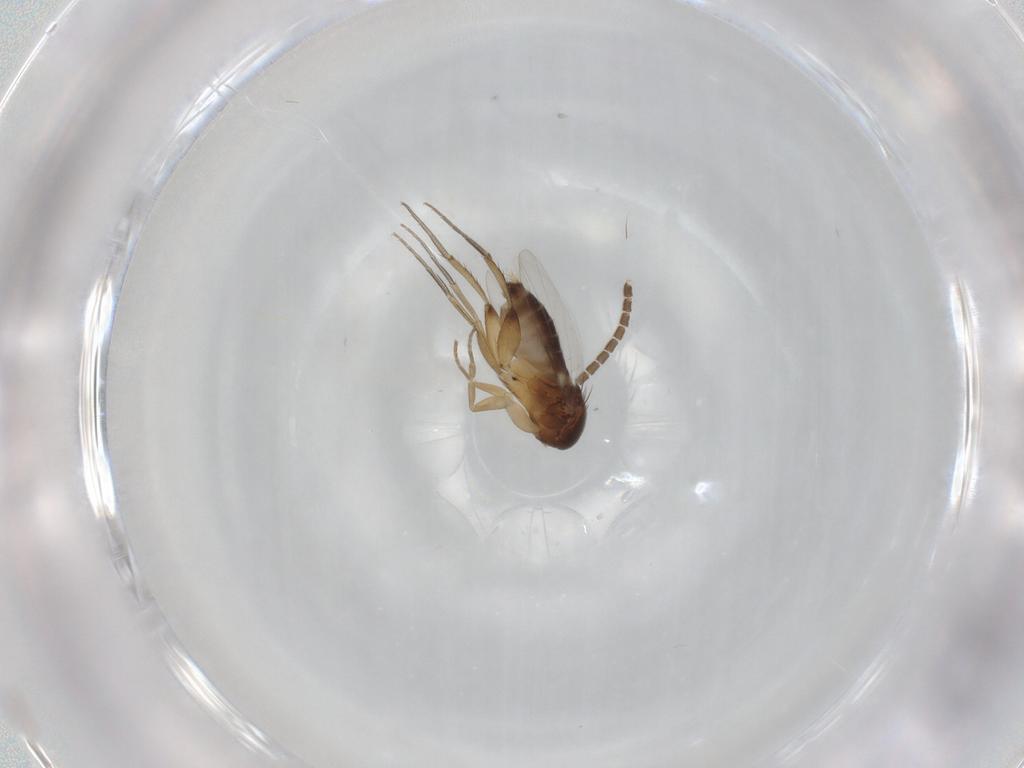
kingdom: Animalia
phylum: Arthropoda
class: Insecta
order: Diptera
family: Phoridae
